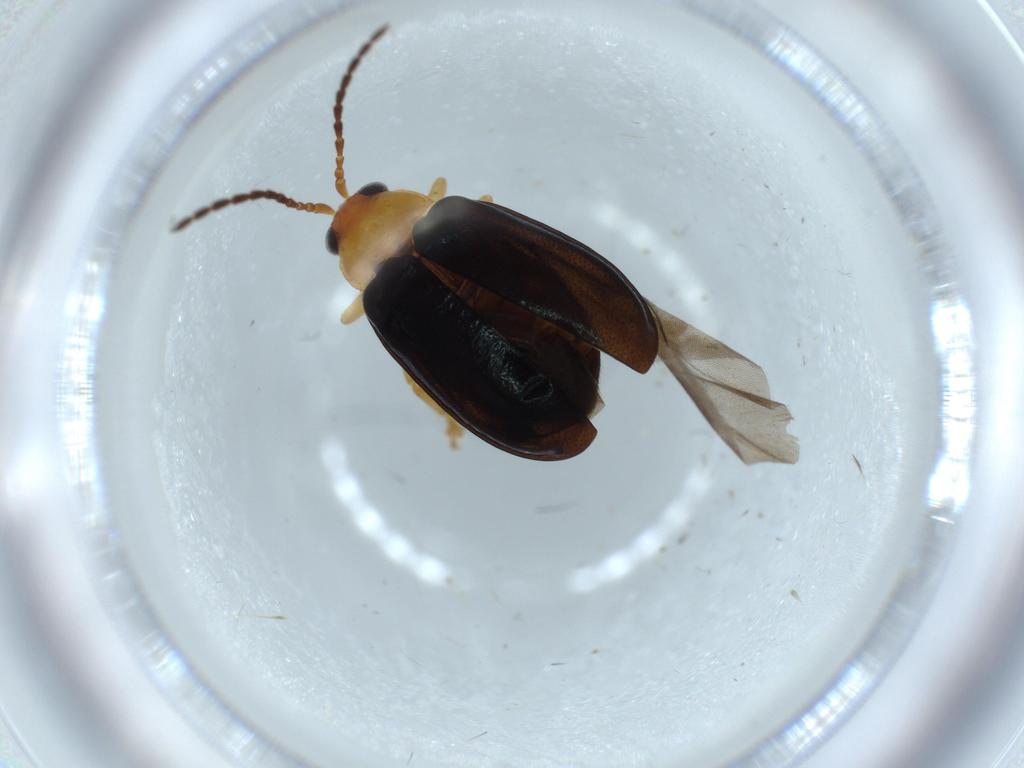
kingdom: Animalia
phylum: Arthropoda
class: Insecta
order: Coleoptera
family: Chrysomelidae
